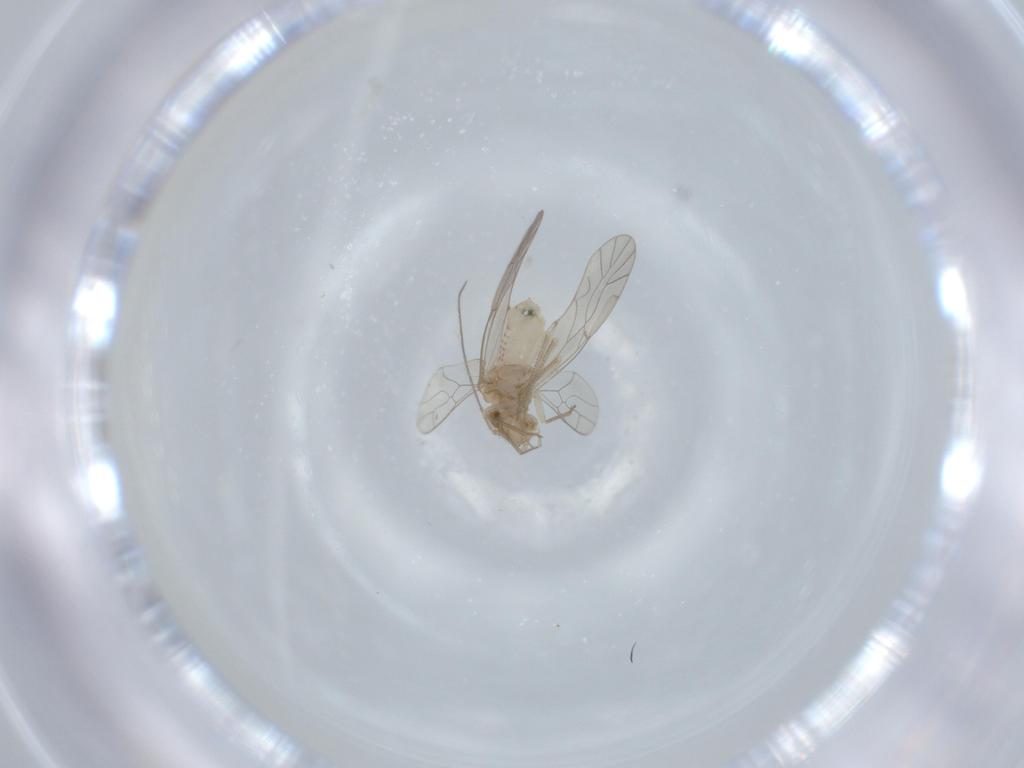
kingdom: Animalia
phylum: Arthropoda
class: Insecta
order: Psocodea
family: Lachesillidae
